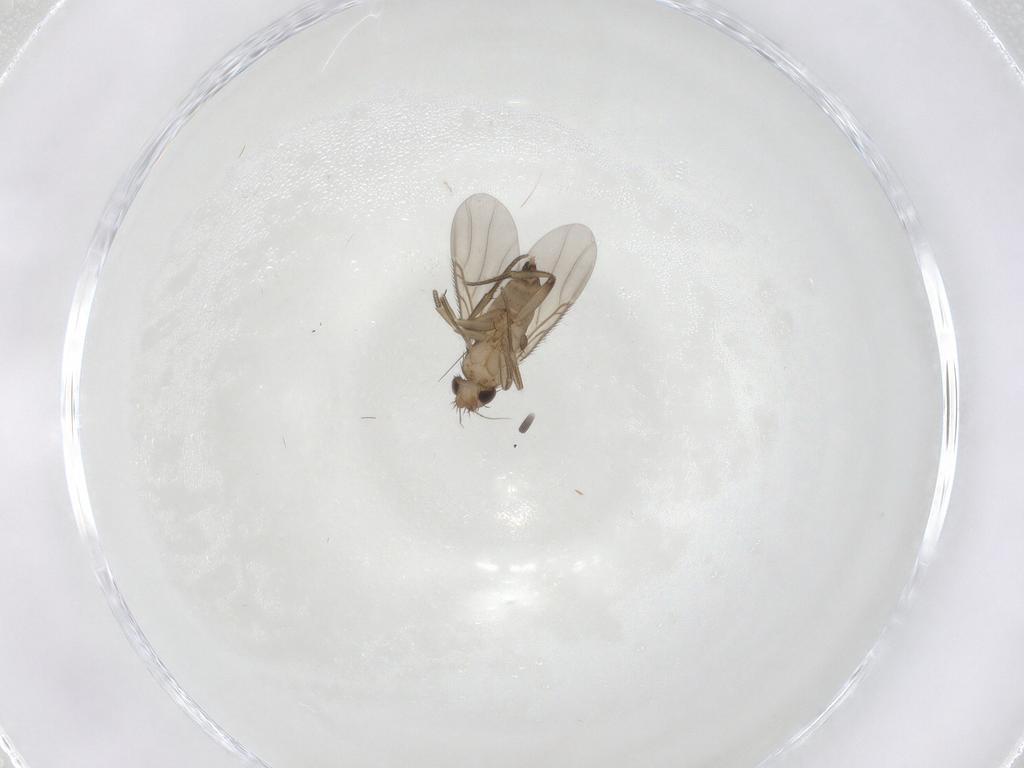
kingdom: Animalia
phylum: Arthropoda
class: Insecta
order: Diptera
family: Phoridae
